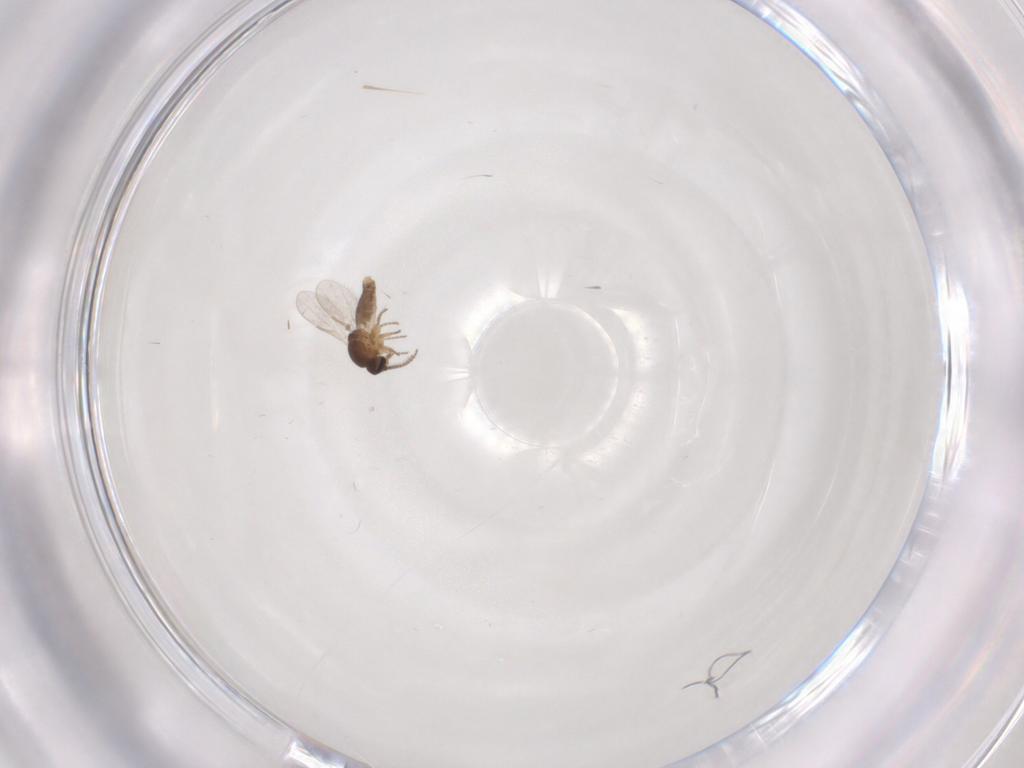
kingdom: Animalia
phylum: Arthropoda
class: Insecta
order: Diptera
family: Ceratopogonidae
